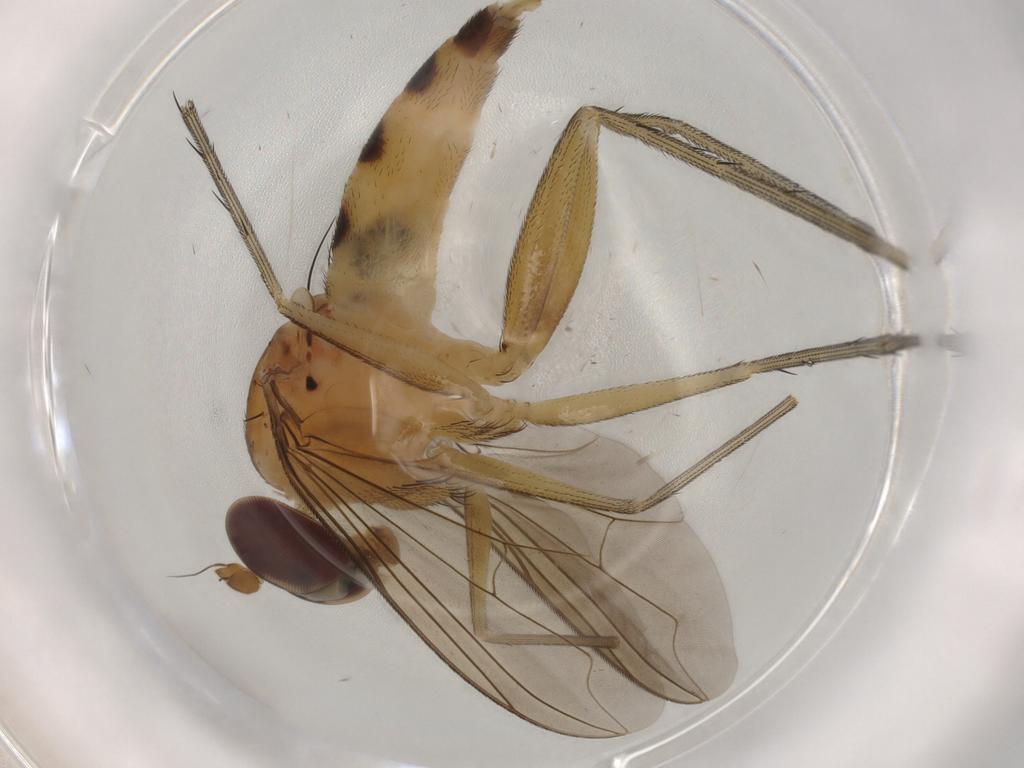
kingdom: Animalia
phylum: Arthropoda
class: Insecta
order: Diptera
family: Dolichopodidae
